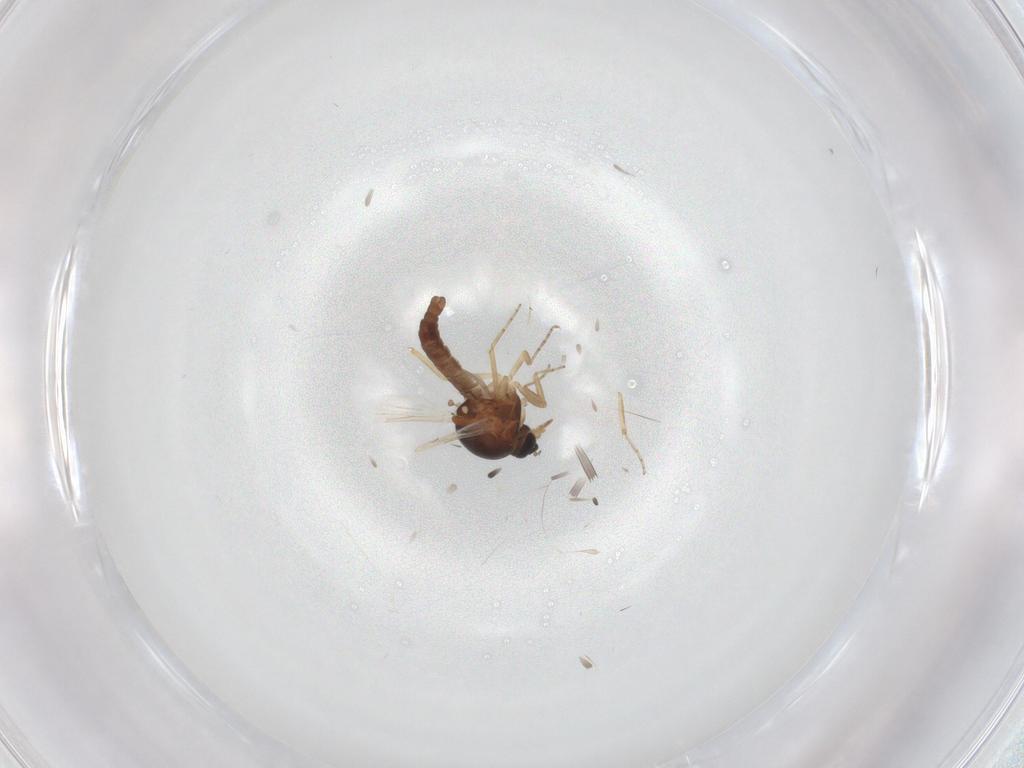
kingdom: Animalia
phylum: Arthropoda
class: Insecta
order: Diptera
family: Ceratopogonidae
